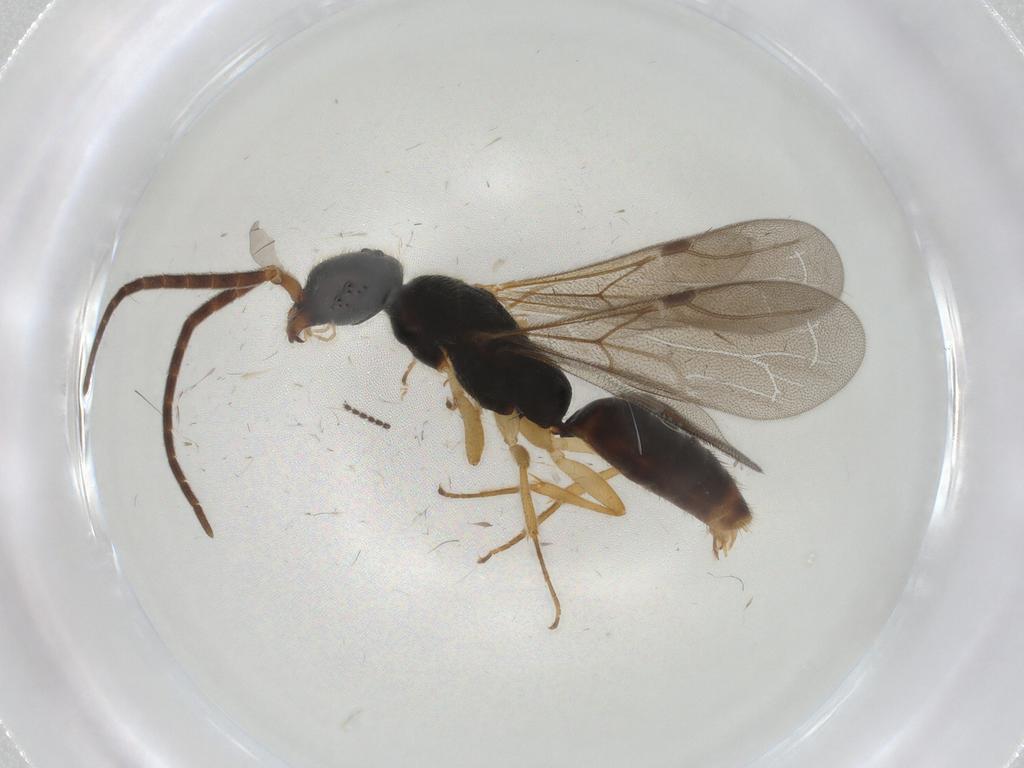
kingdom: Animalia
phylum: Arthropoda
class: Insecta
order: Hymenoptera
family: Bethylidae
